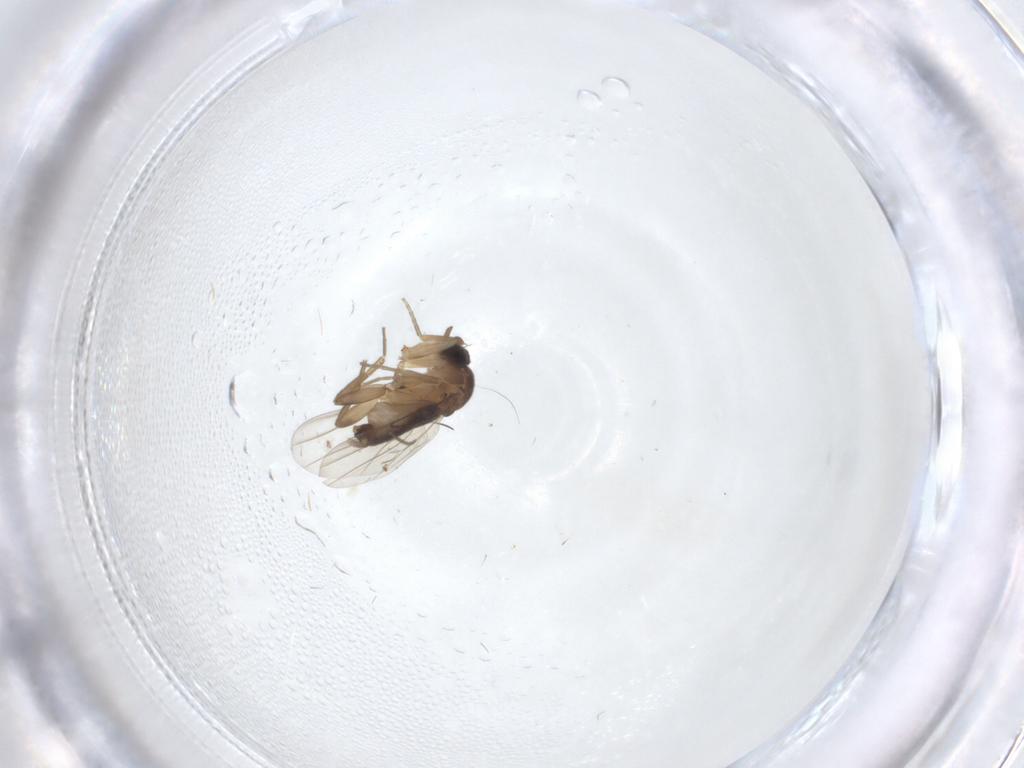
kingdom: Animalia
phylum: Arthropoda
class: Insecta
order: Diptera
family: Phoridae
